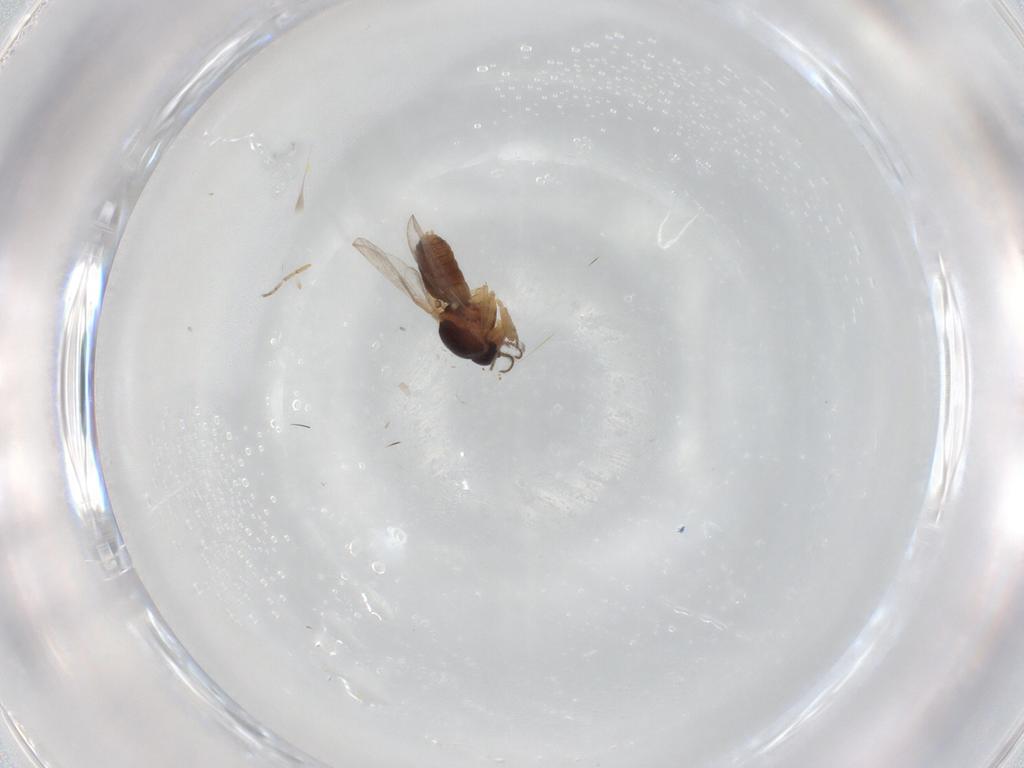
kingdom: Animalia
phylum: Arthropoda
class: Insecta
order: Diptera
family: Ceratopogonidae
